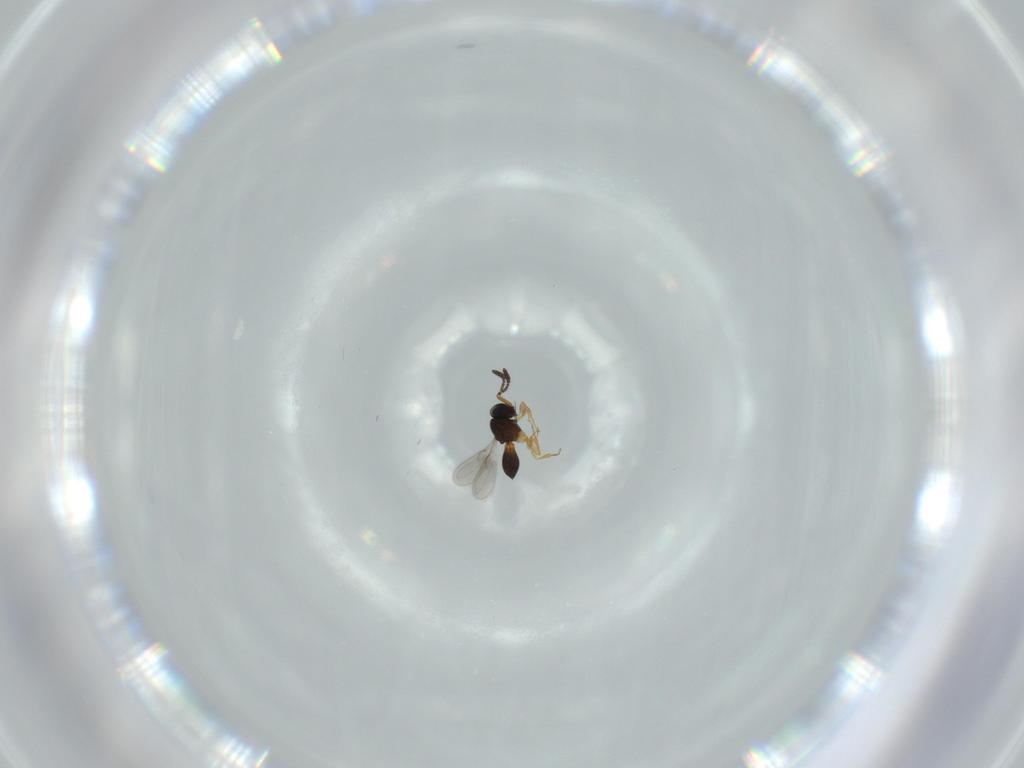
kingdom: Animalia
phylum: Arthropoda
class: Insecta
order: Hymenoptera
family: Scelionidae
